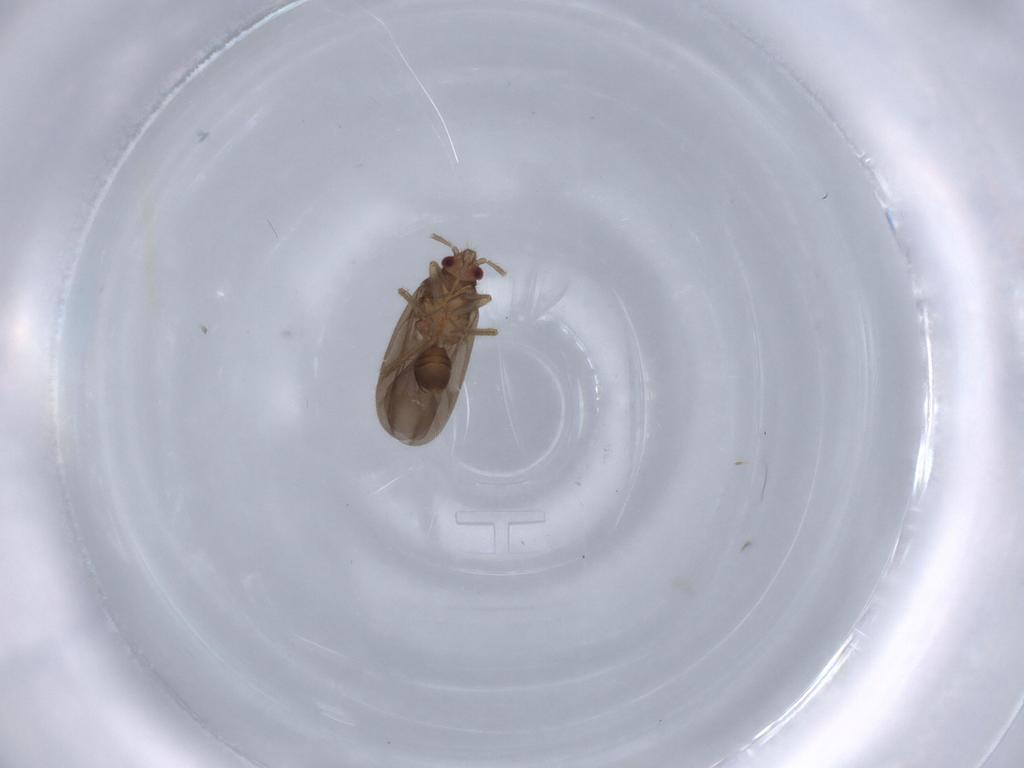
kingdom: Animalia
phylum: Arthropoda
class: Insecta
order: Hemiptera
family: Ceratocombidae
